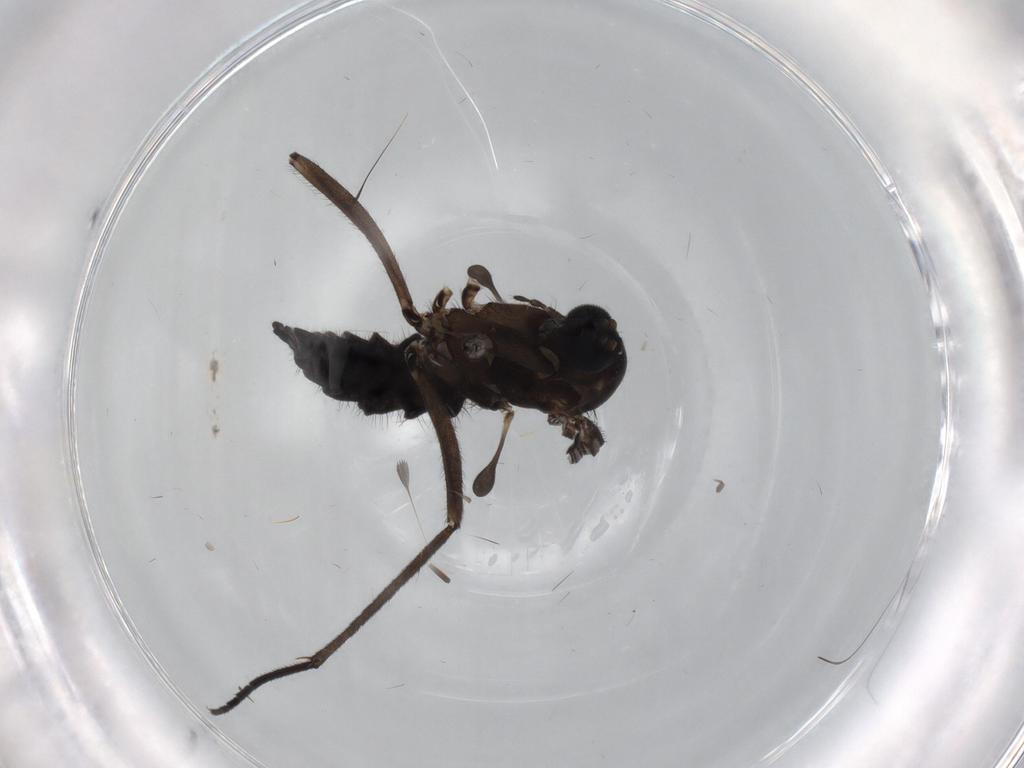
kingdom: Animalia
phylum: Arthropoda
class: Insecta
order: Diptera
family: Sciaridae
